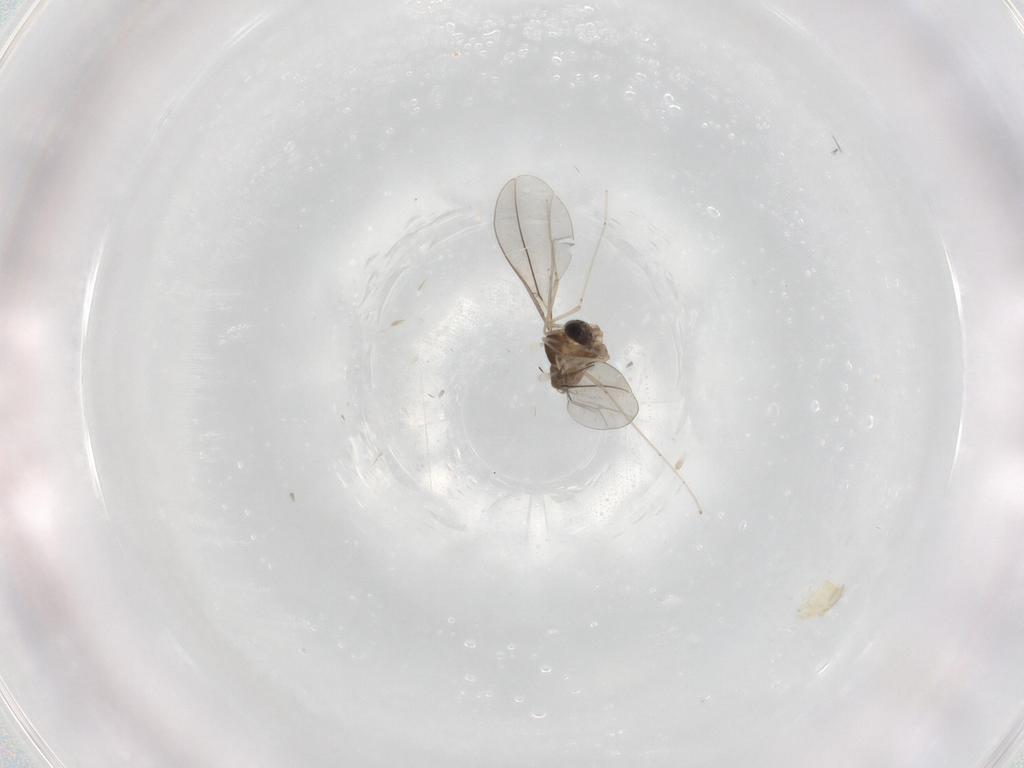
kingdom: Animalia
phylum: Arthropoda
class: Insecta
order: Diptera
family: Cecidomyiidae
